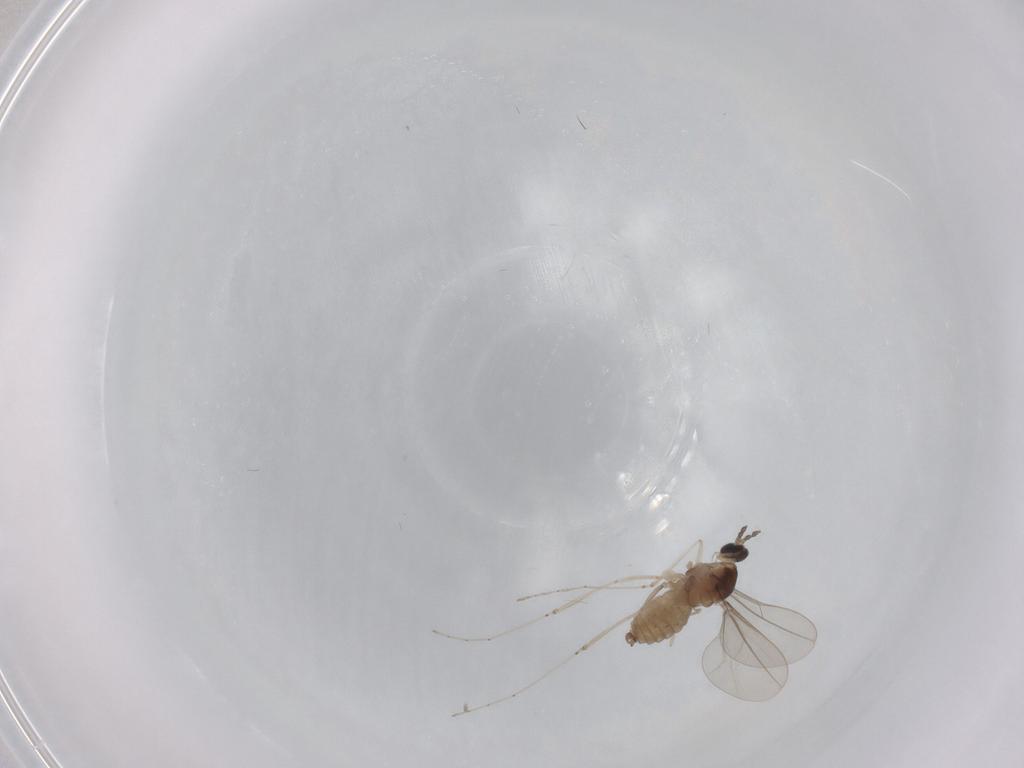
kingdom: Animalia
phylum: Arthropoda
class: Insecta
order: Diptera
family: Cecidomyiidae
